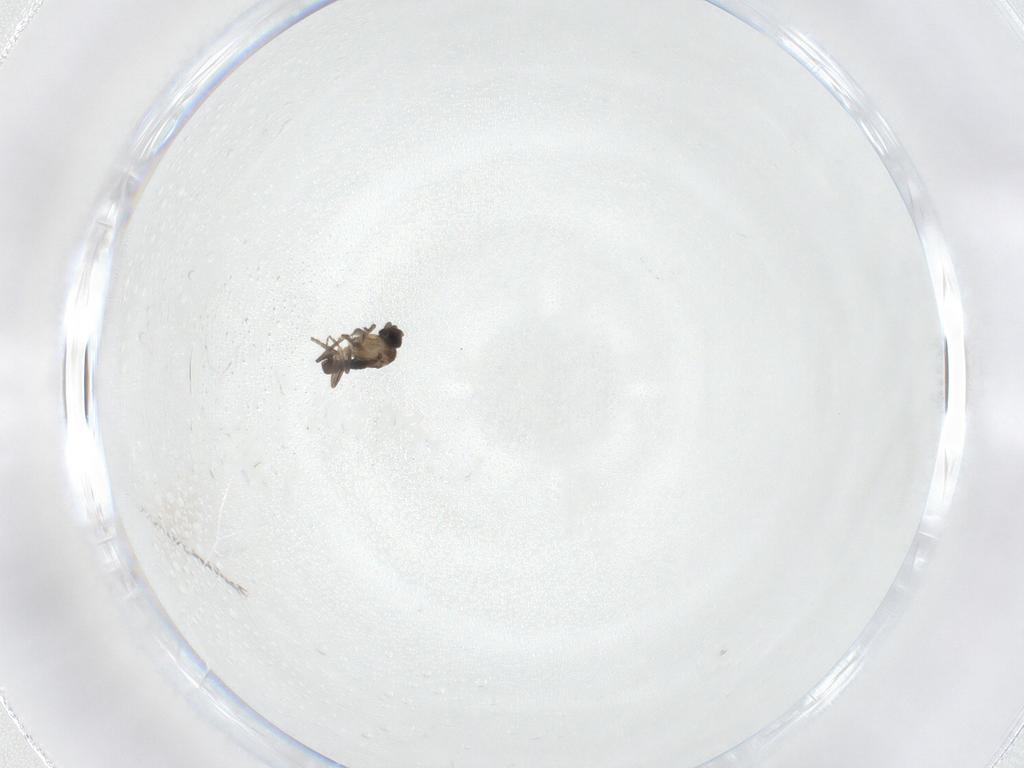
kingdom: Animalia
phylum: Arthropoda
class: Insecta
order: Diptera
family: Phoridae
